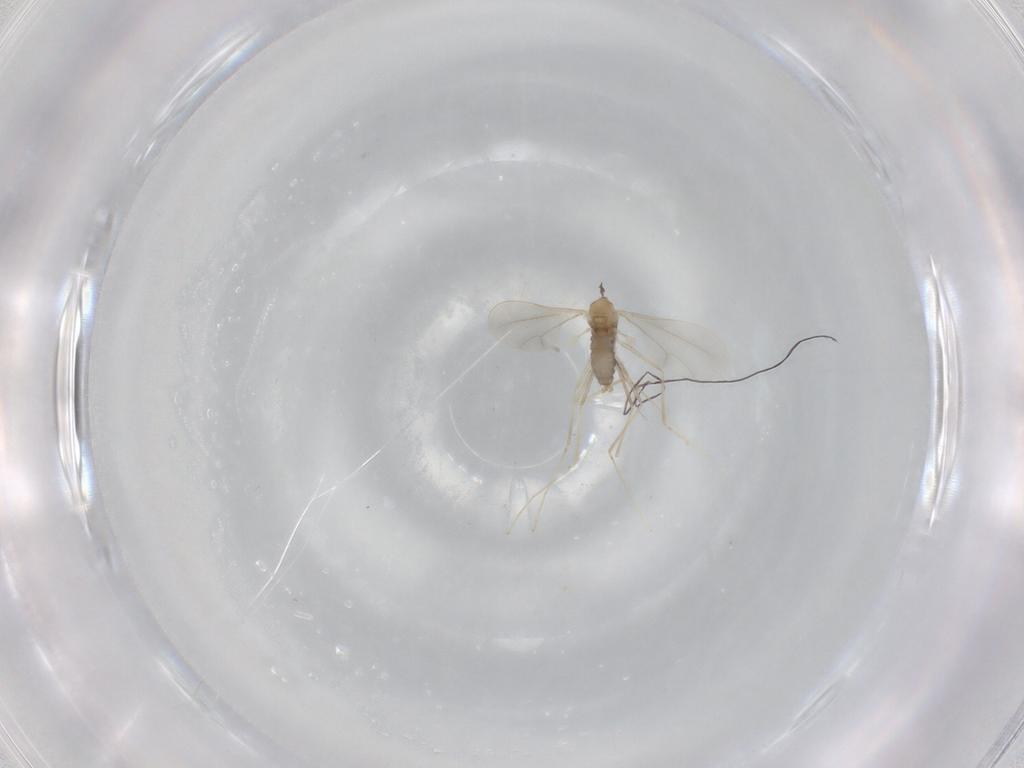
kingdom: Animalia
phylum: Arthropoda
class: Insecta
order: Diptera
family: Cecidomyiidae
